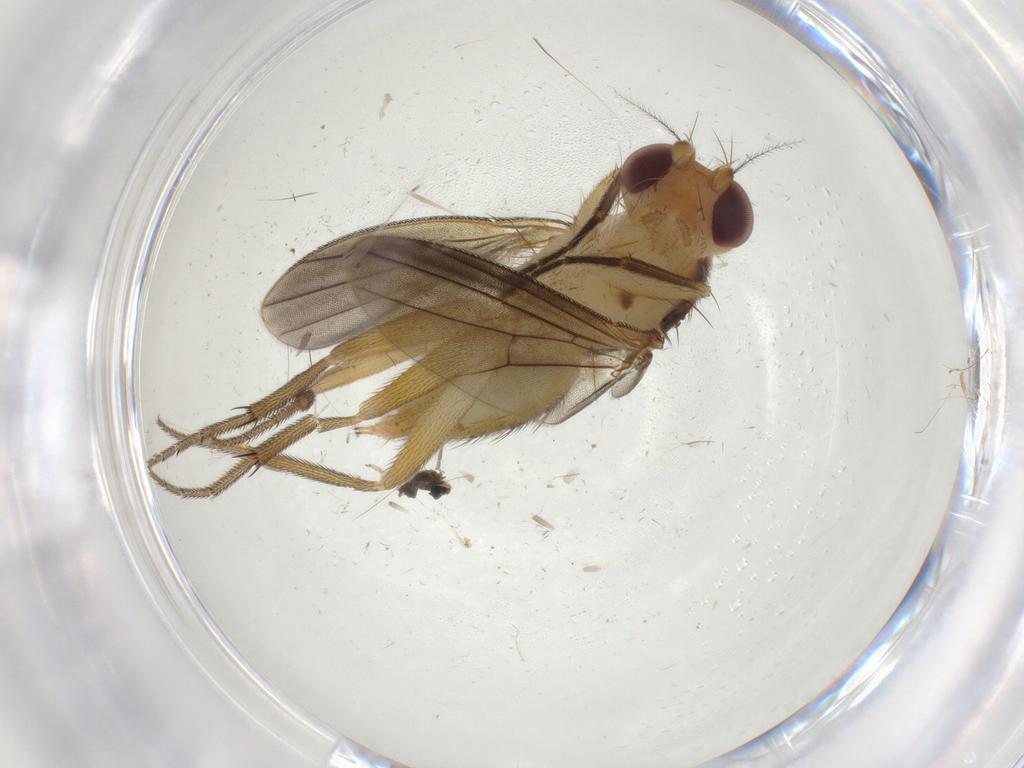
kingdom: Animalia
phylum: Arthropoda
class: Insecta
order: Diptera
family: Clusiidae
